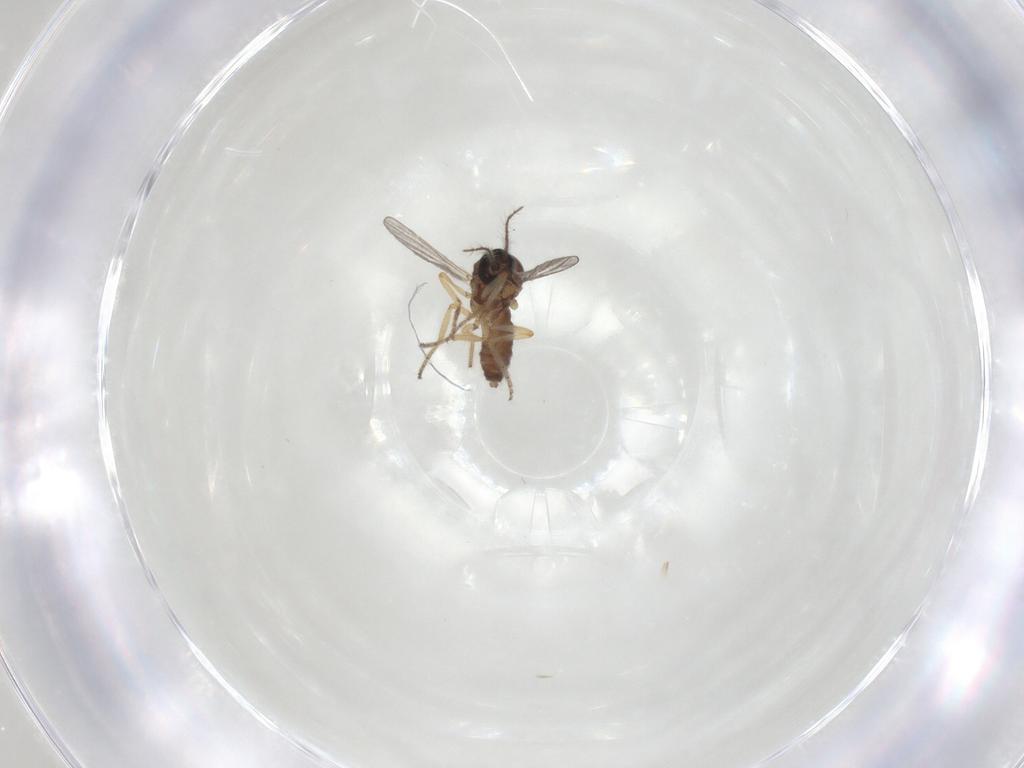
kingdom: Animalia
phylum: Arthropoda
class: Insecta
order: Diptera
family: Ceratopogonidae
